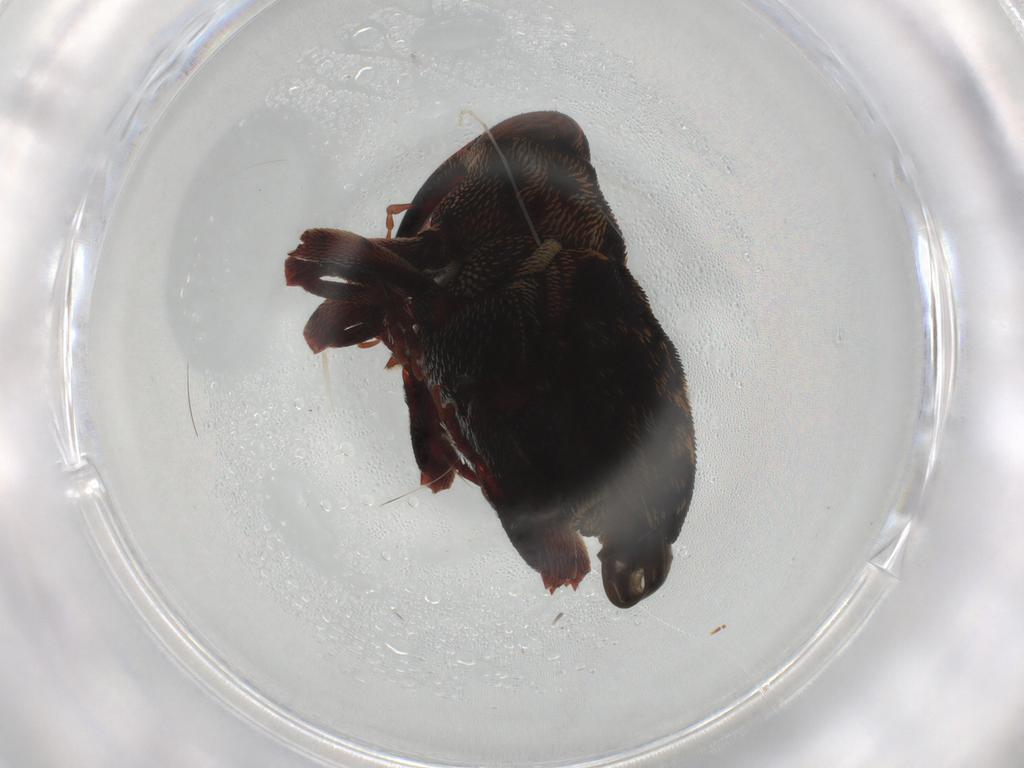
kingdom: Animalia
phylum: Arthropoda
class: Insecta
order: Coleoptera
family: Curculionidae
